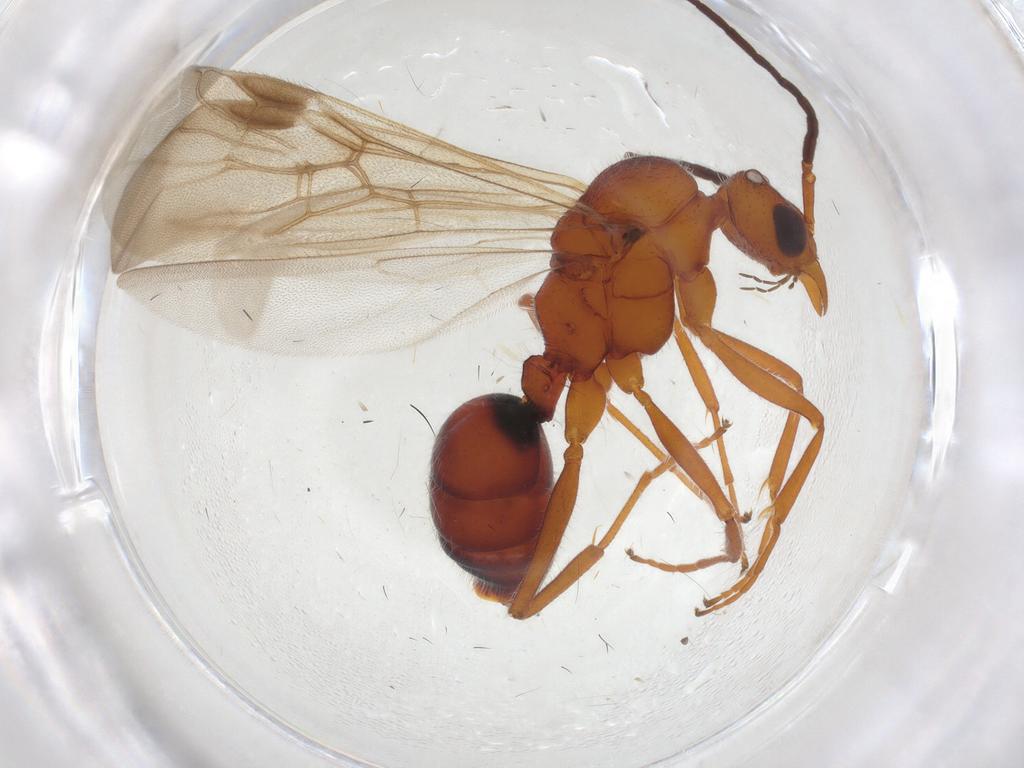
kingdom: Animalia
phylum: Arthropoda
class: Insecta
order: Hymenoptera
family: Formicidae
